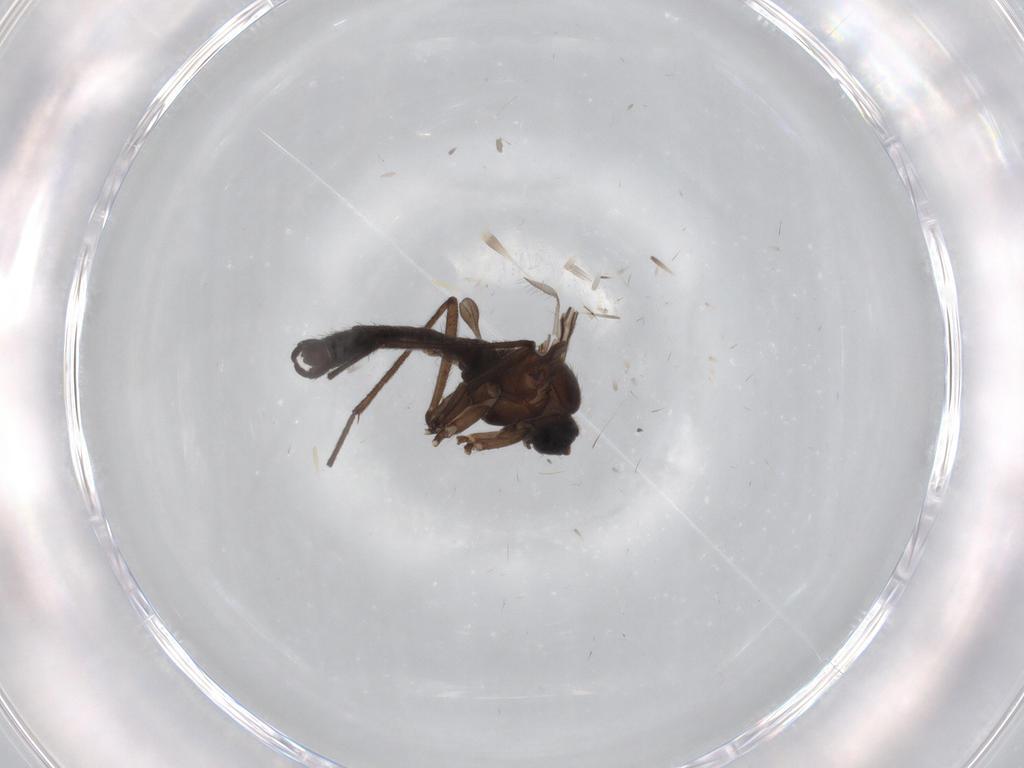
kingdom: Animalia
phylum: Arthropoda
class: Insecta
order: Diptera
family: Sciaridae
